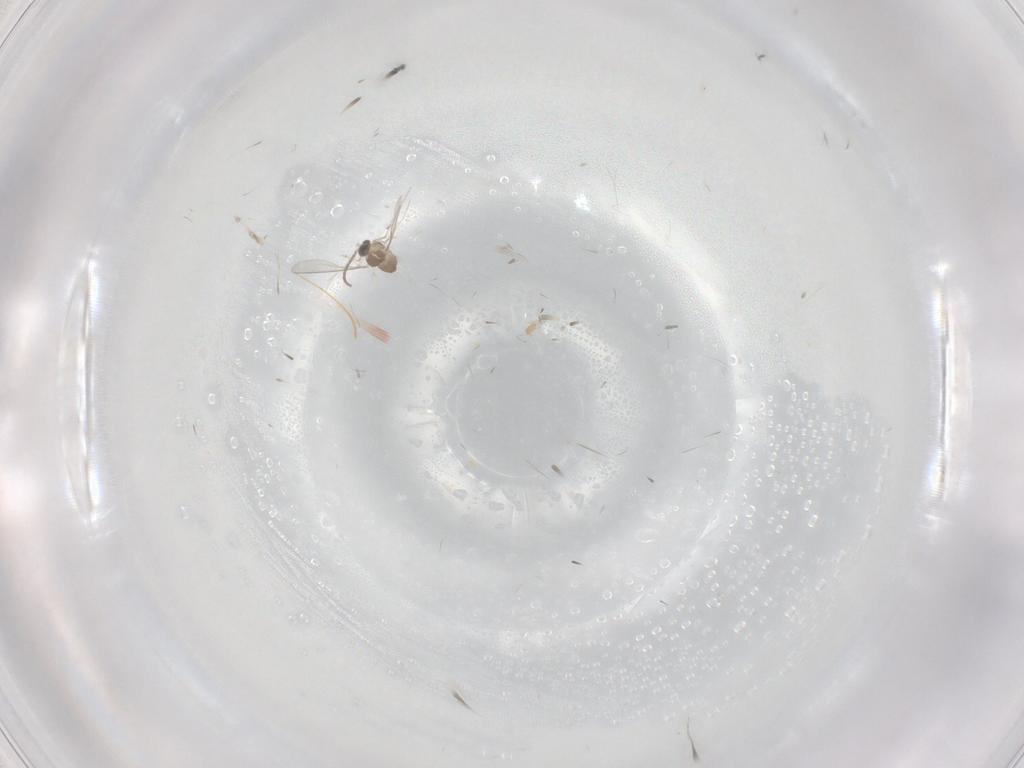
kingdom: Animalia
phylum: Arthropoda
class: Insecta
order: Diptera
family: Cecidomyiidae
